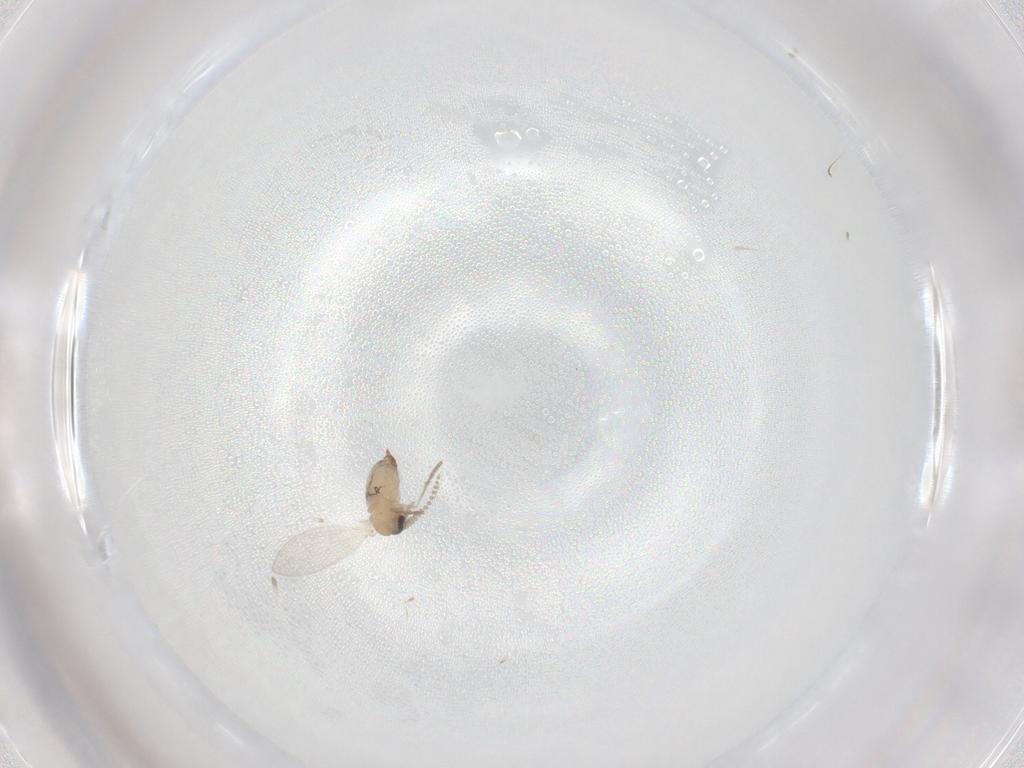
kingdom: Animalia
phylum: Arthropoda
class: Insecta
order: Diptera
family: Psychodidae
